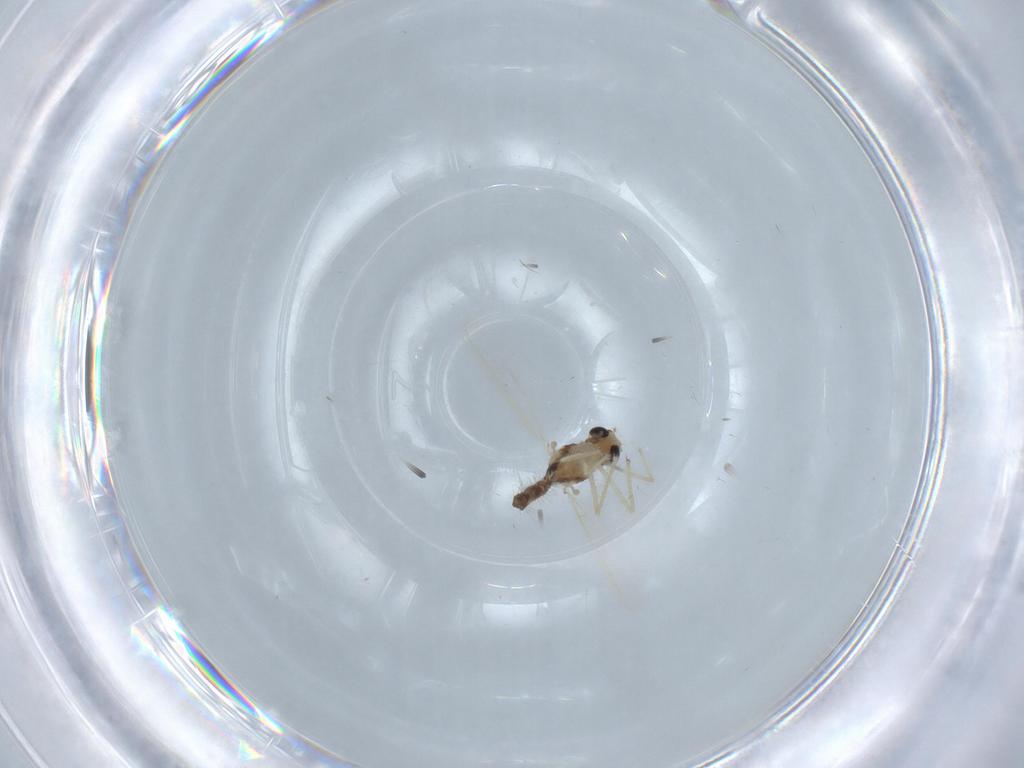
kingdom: Animalia
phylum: Arthropoda
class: Insecta
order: Diptera
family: Chironomidae
